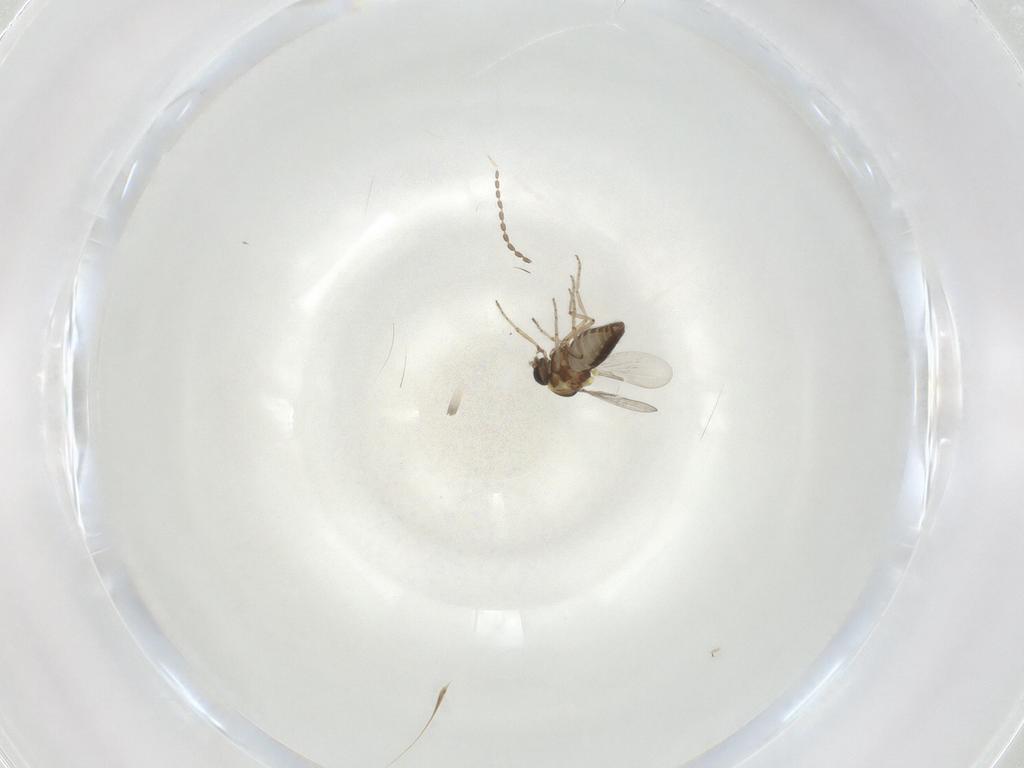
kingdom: Animalia
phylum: Arthropoda
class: Insecta
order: Diptera
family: Ceratopogonidae
